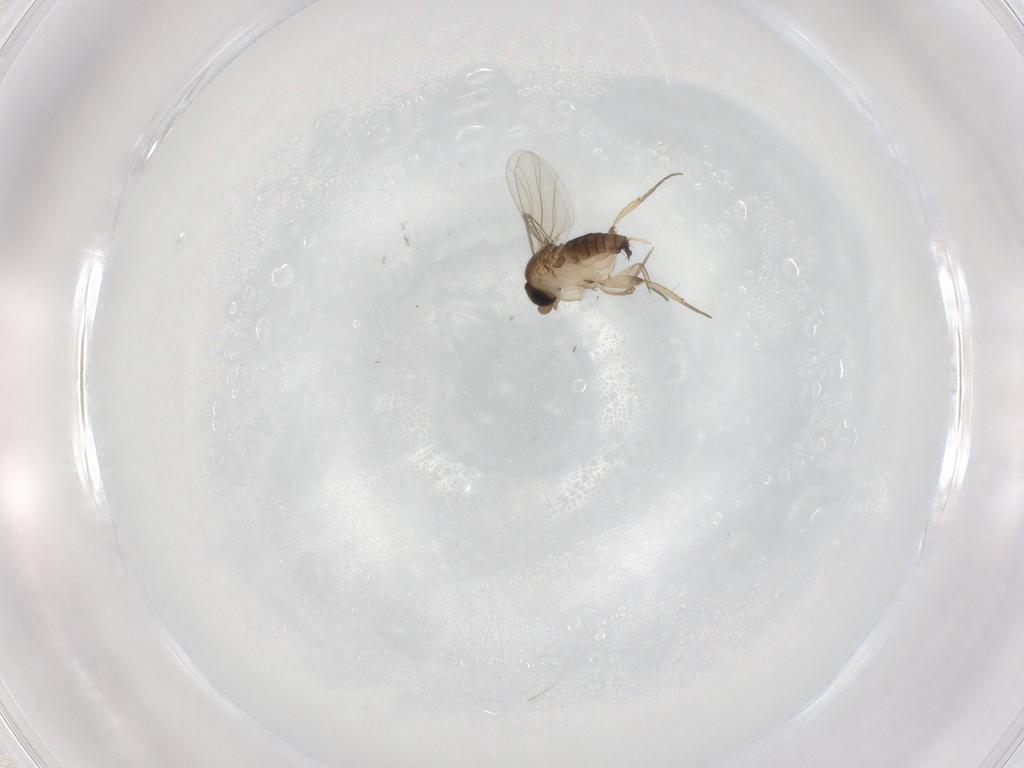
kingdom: Animalia
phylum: Arthropoda
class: Insecta
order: Diptera
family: Phoridae
